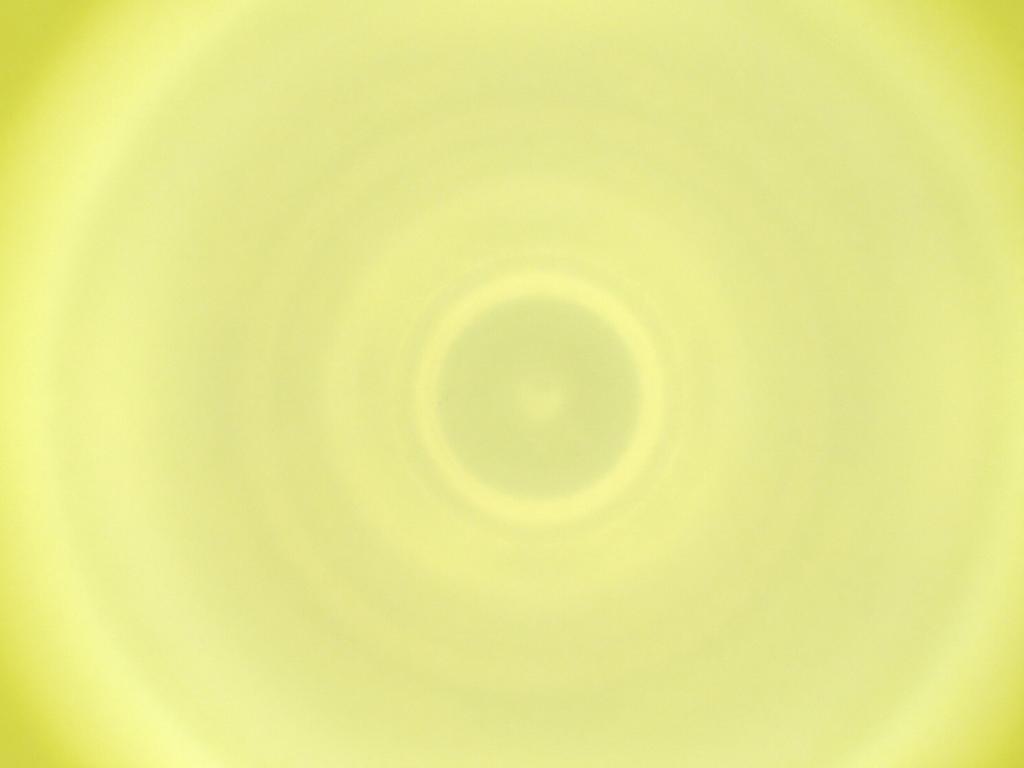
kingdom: Animalia
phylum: Arthropoda
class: Insecta
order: Diptera
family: Cecidomyiidae
